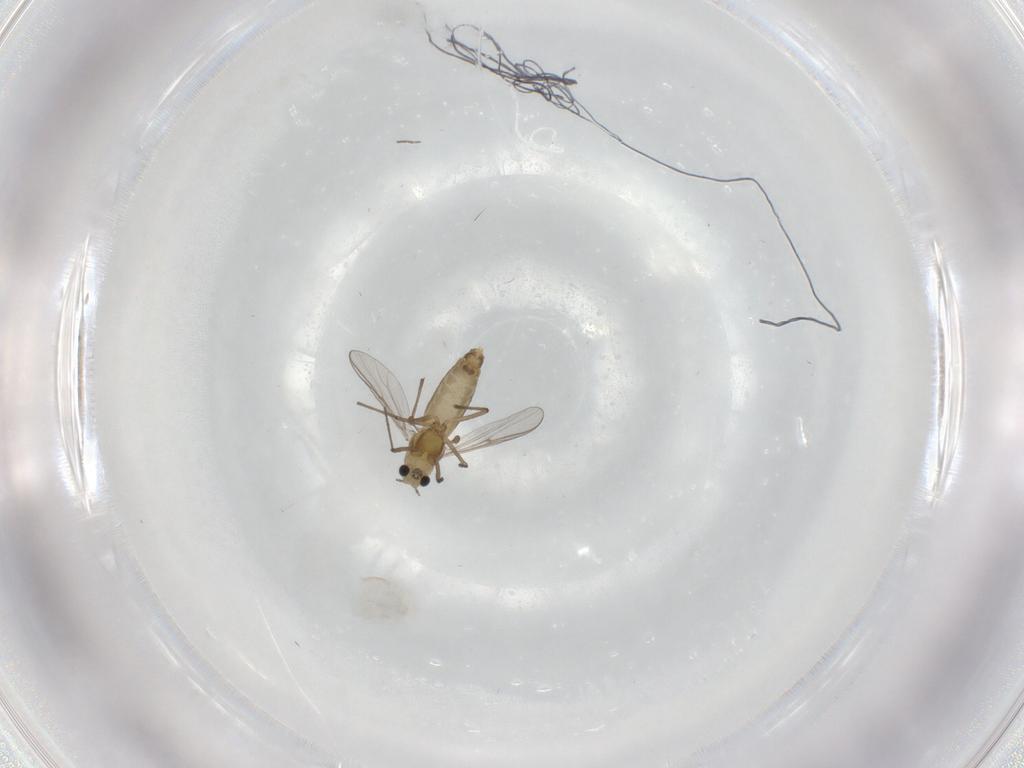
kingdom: Animalia
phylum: Arthropoda
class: Insecta
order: Diptera
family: Chironomidae
